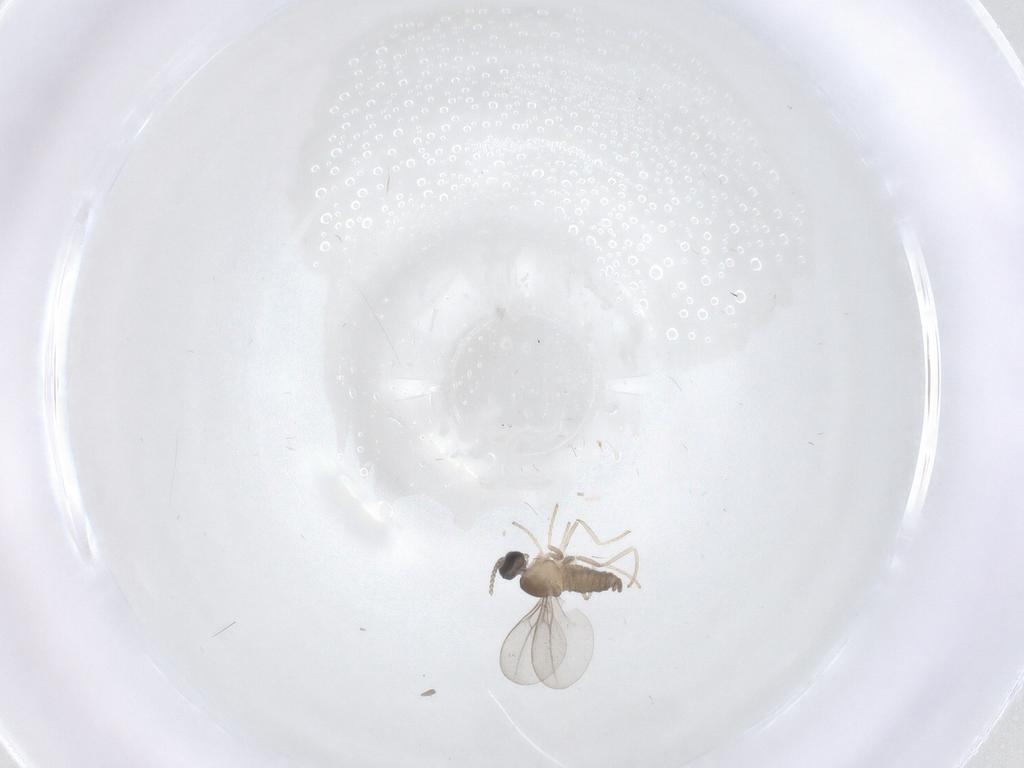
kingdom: Animalia
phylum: Arthropoda
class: Insecta
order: Diptera
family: Cecidomyiidae
